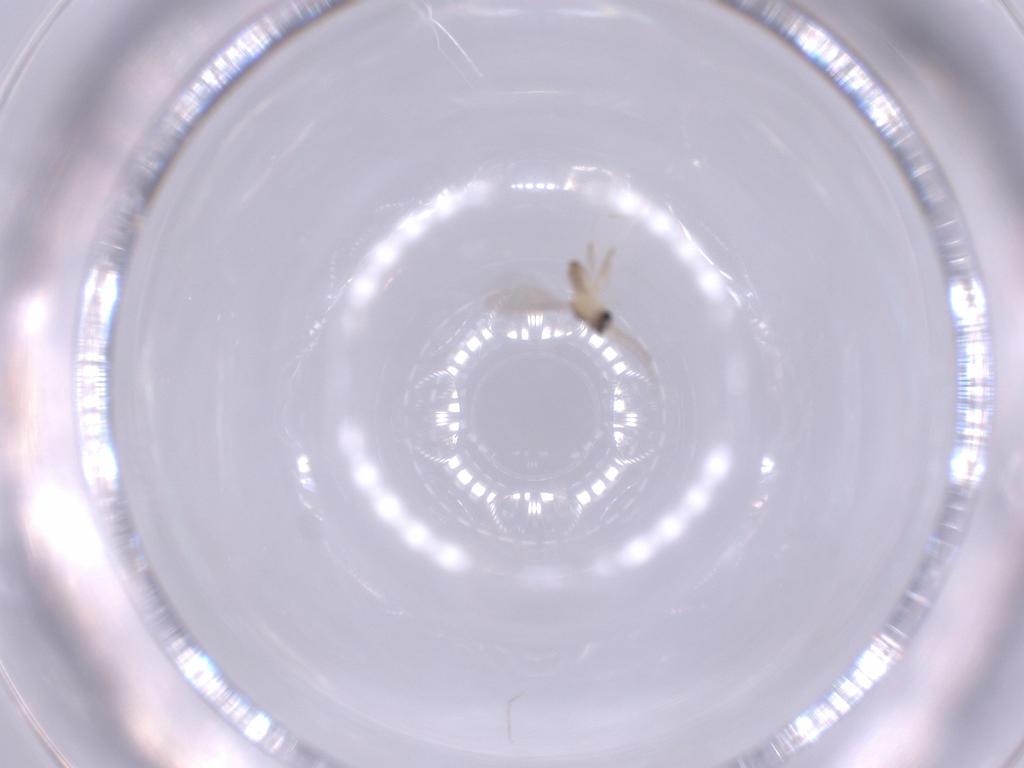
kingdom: Animalia
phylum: Arthropoda
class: Insecta
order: Diptera
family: Cecidomyiidae
